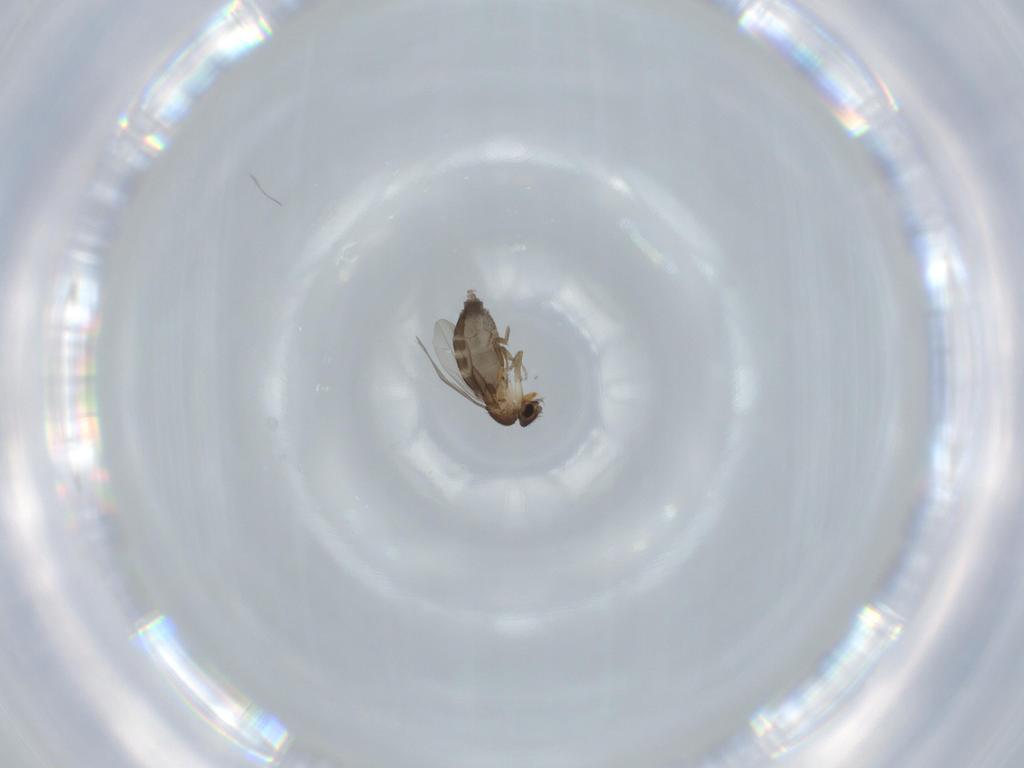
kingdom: Animalia
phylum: Arthropoda
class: Insecta
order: Diptera
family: Phoridae
